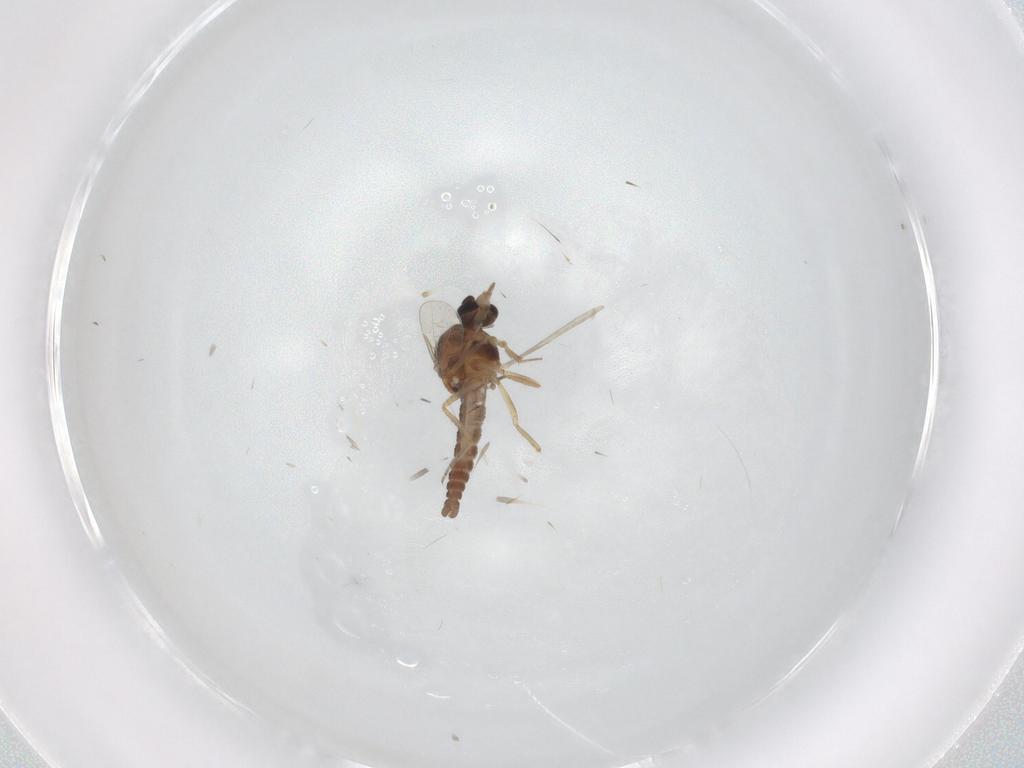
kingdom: Animalia
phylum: Arthropoda
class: Insecta
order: Diptera
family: Ceratopogonidae
